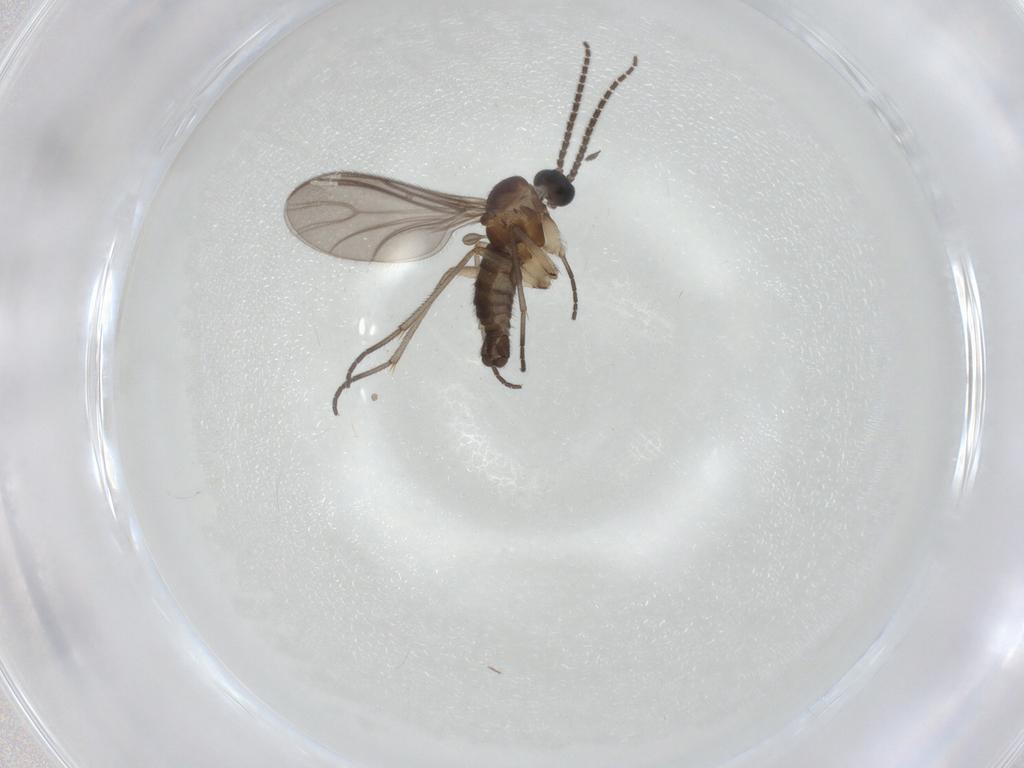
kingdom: Animalia
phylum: Arthropoda
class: Insecta
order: Diptera
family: Sciaridae
